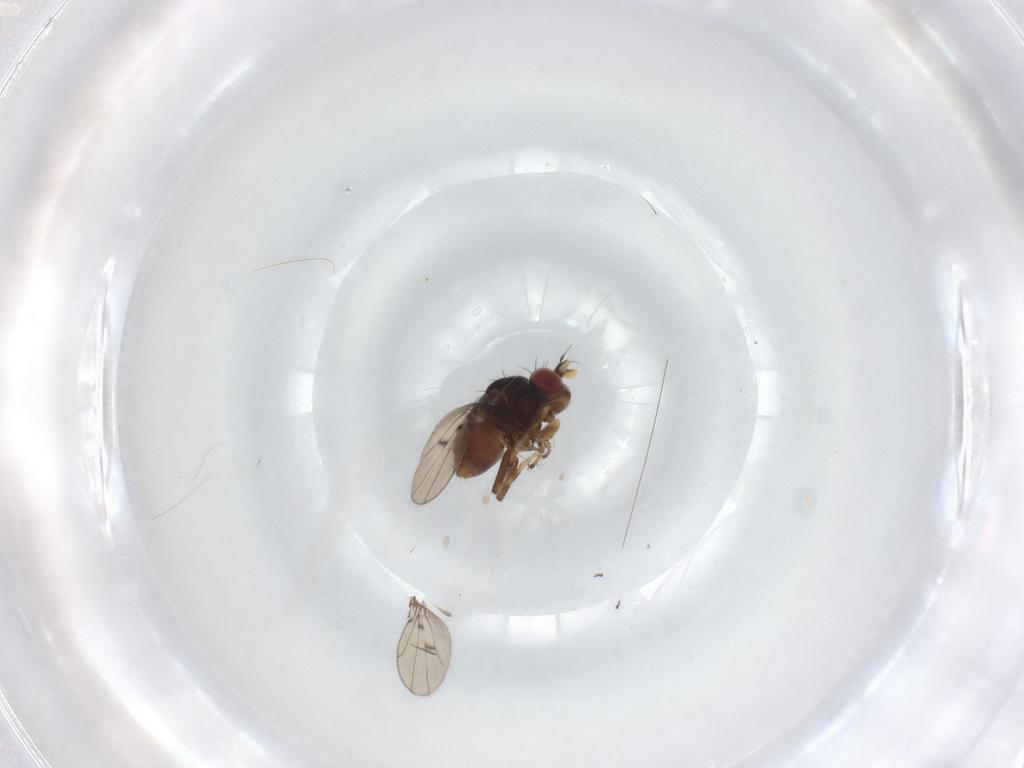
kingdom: Animalia
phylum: Arthropoda
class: Insecta
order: Diptera
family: Ephydridae
